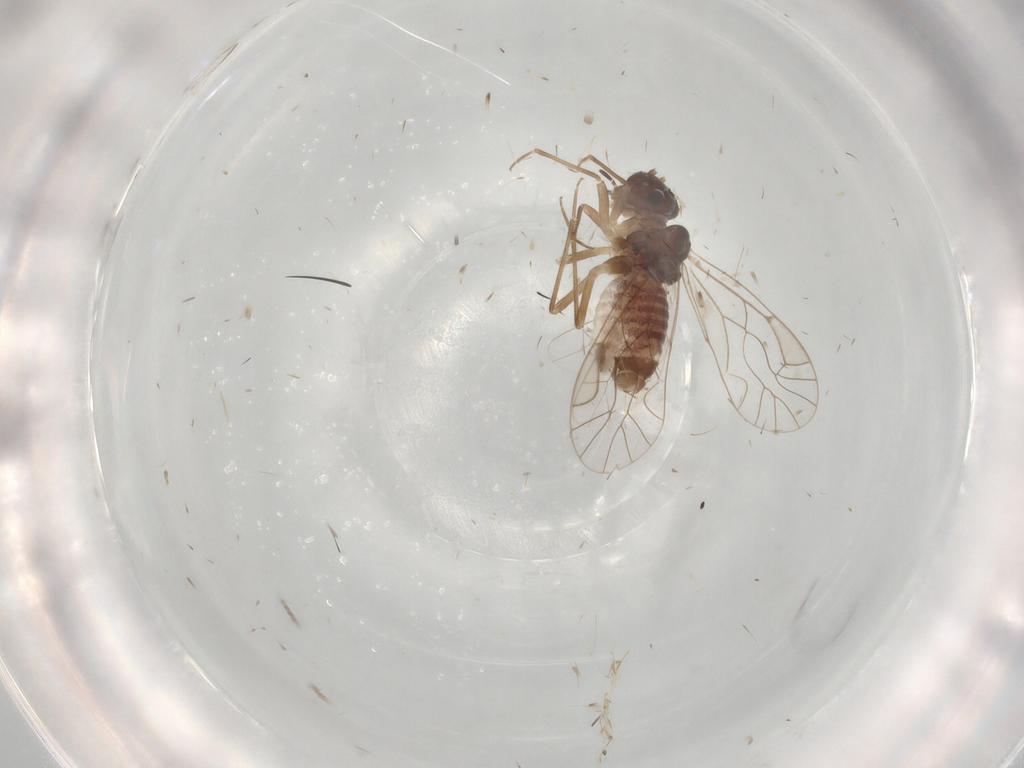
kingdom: Animalia
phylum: Arthropoda
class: Insecta
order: Psocodea
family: Lachesillidae
